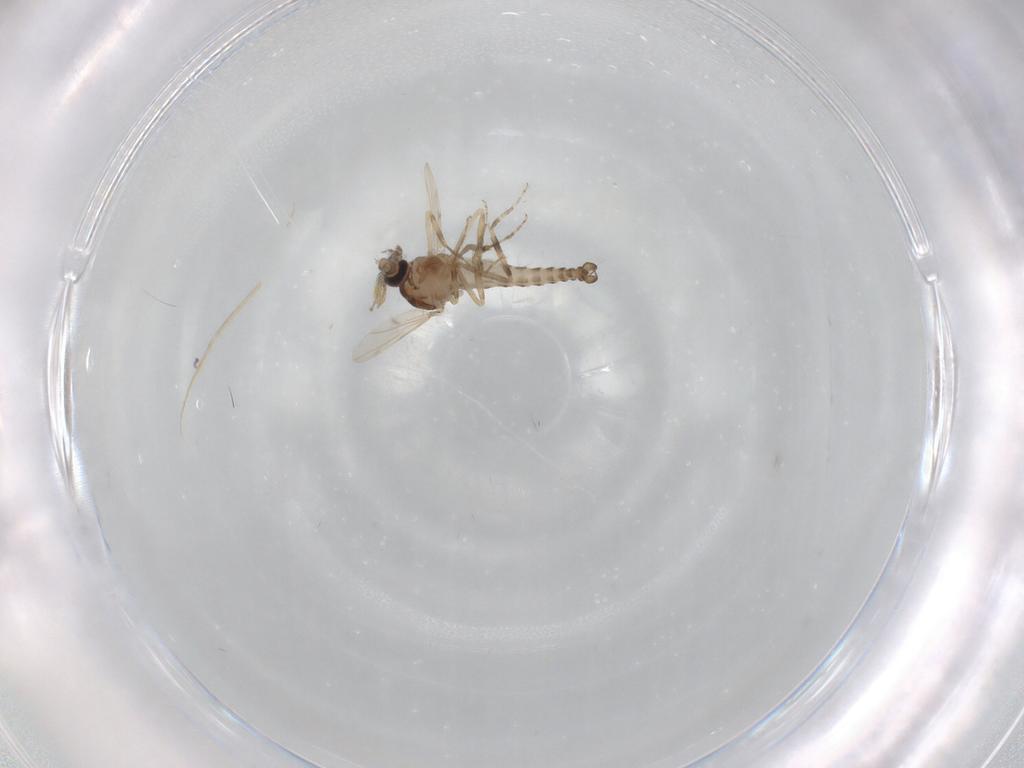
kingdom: Animalia
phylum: Arthropoda
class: Insecta
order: Diptera
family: Ceratopogonidae
